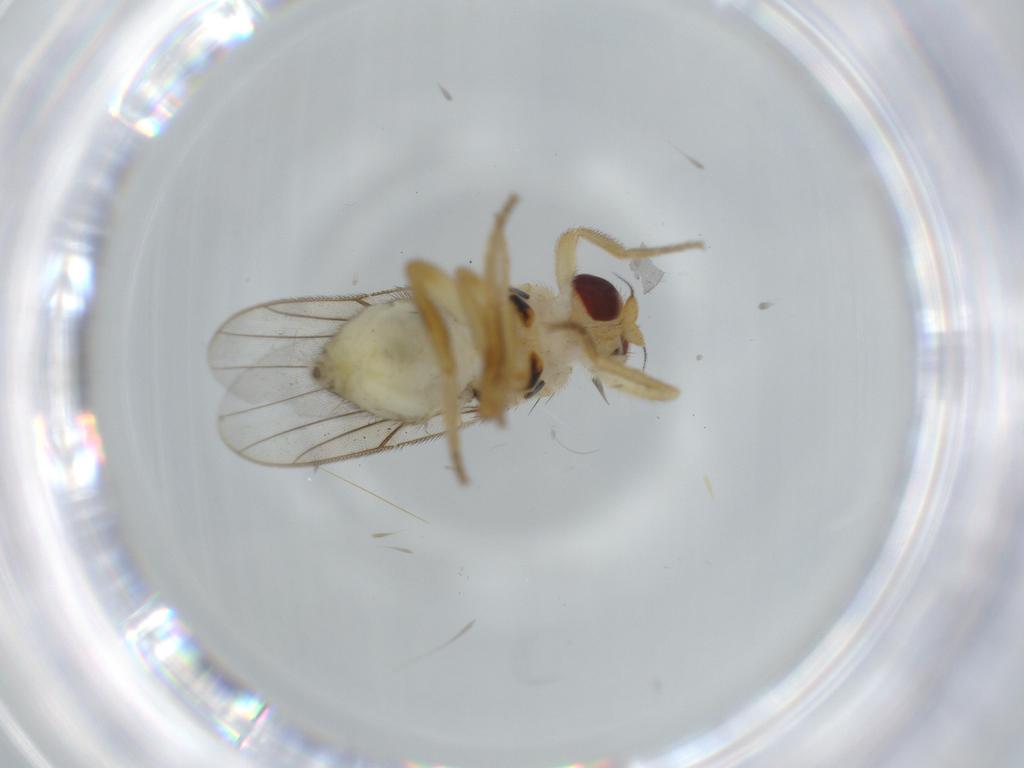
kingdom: Animalia
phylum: Arthropoda
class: Insecta
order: Diptera
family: Chloropidae
